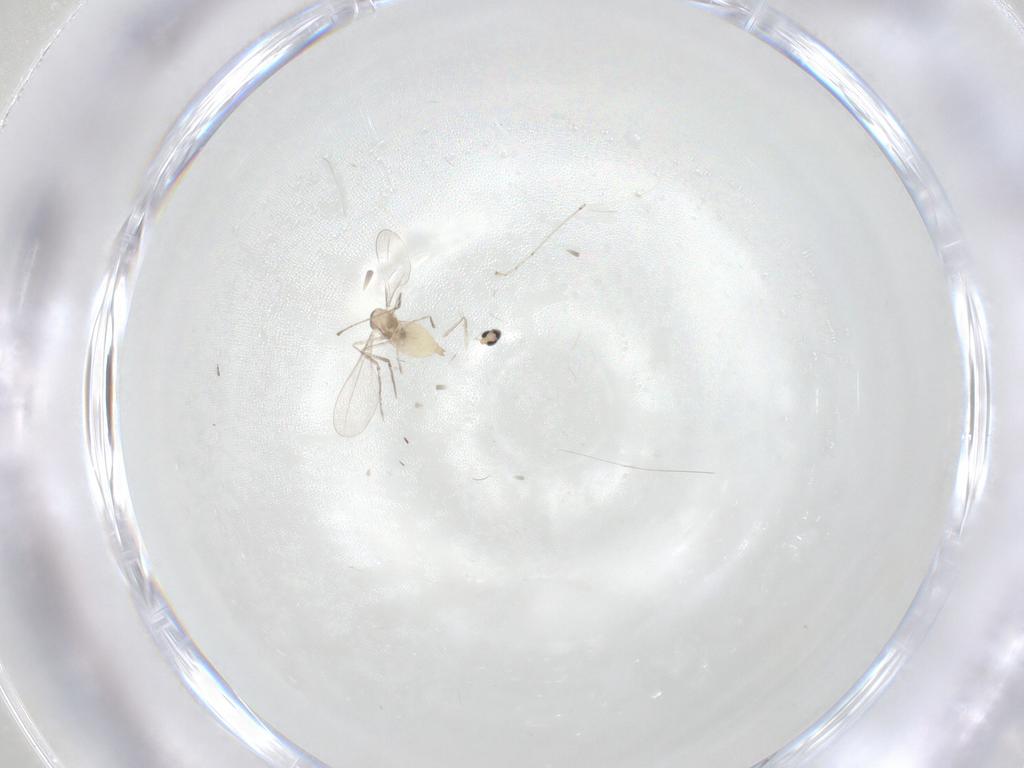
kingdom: Animalia
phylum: Arthropoda
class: Insecta
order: Diptera
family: Cecidomyiidae
